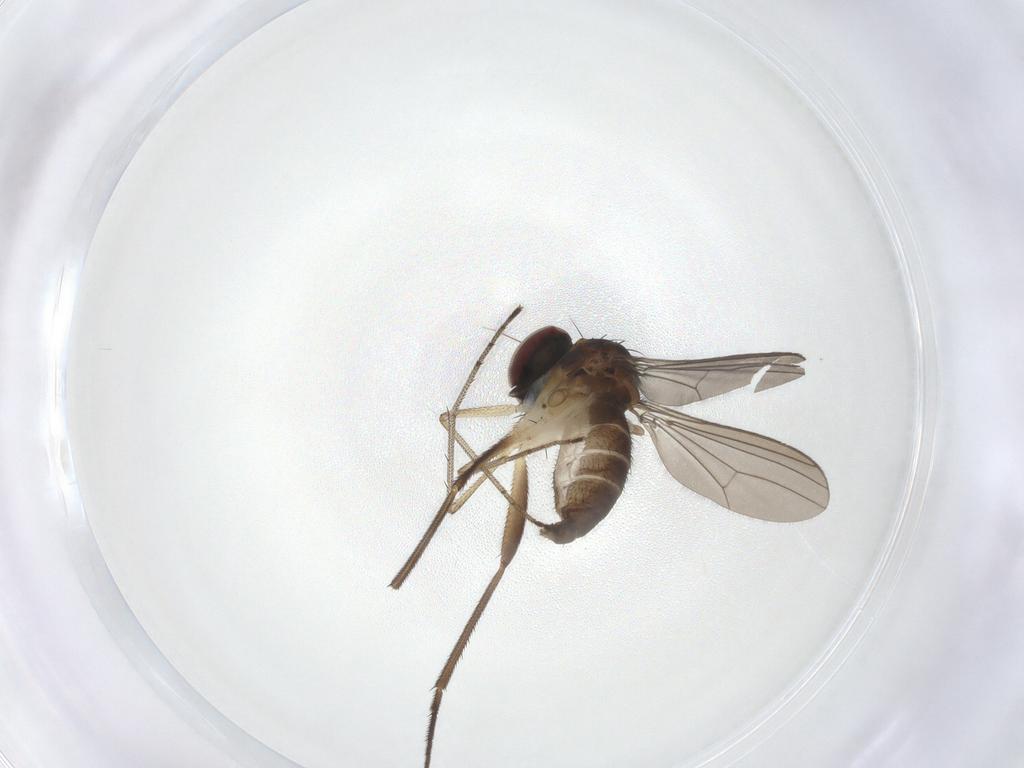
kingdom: Animalia
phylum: Arthropoda
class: Insecta
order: Diptera
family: Dolichopodidae
